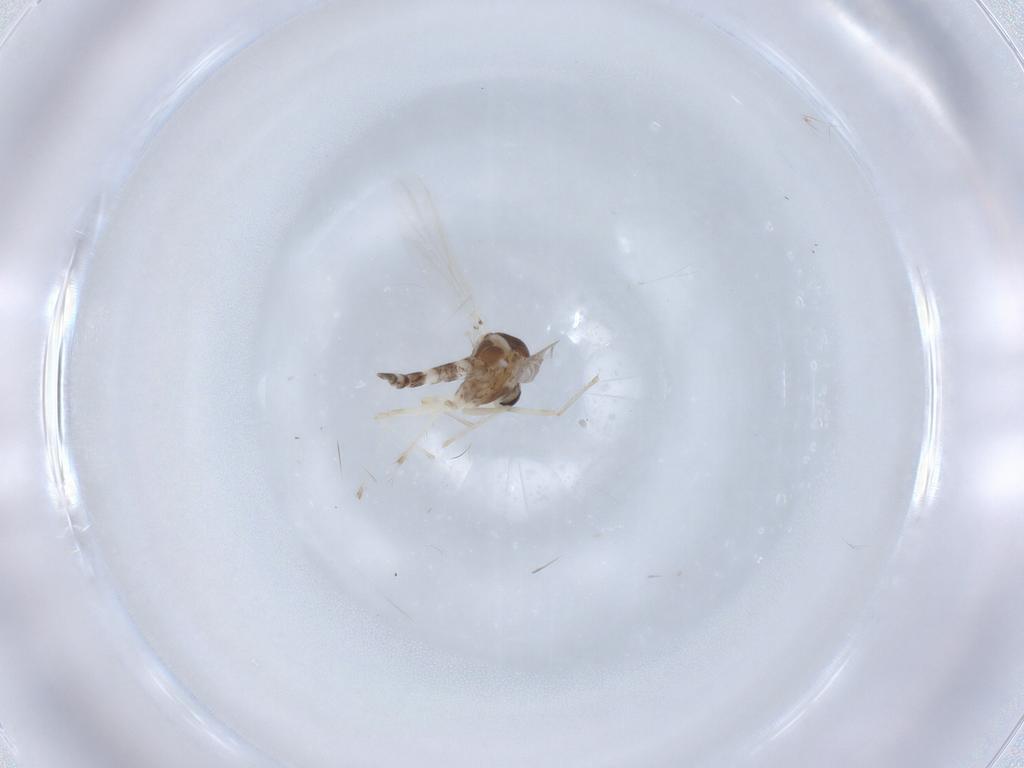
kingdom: Animalia
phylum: Arthropoda
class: Insecta
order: Diptera
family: Chironomidae
